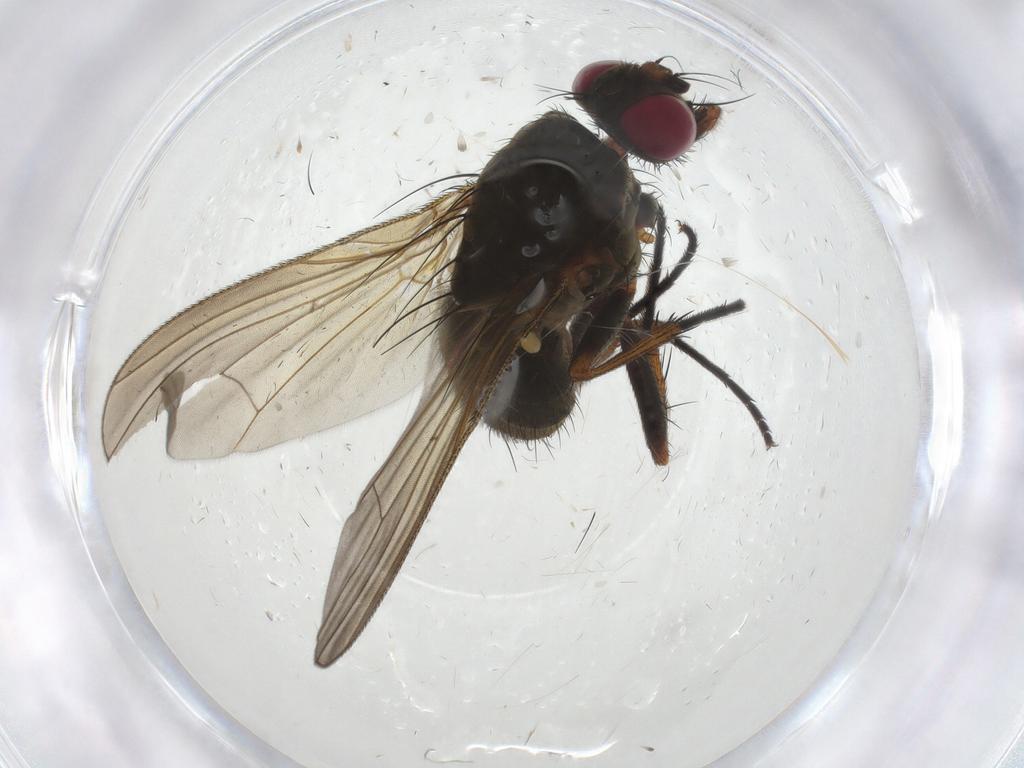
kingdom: Animalia
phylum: Arthropoda
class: Insecta
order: Diptera
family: Ceratopogonidae
